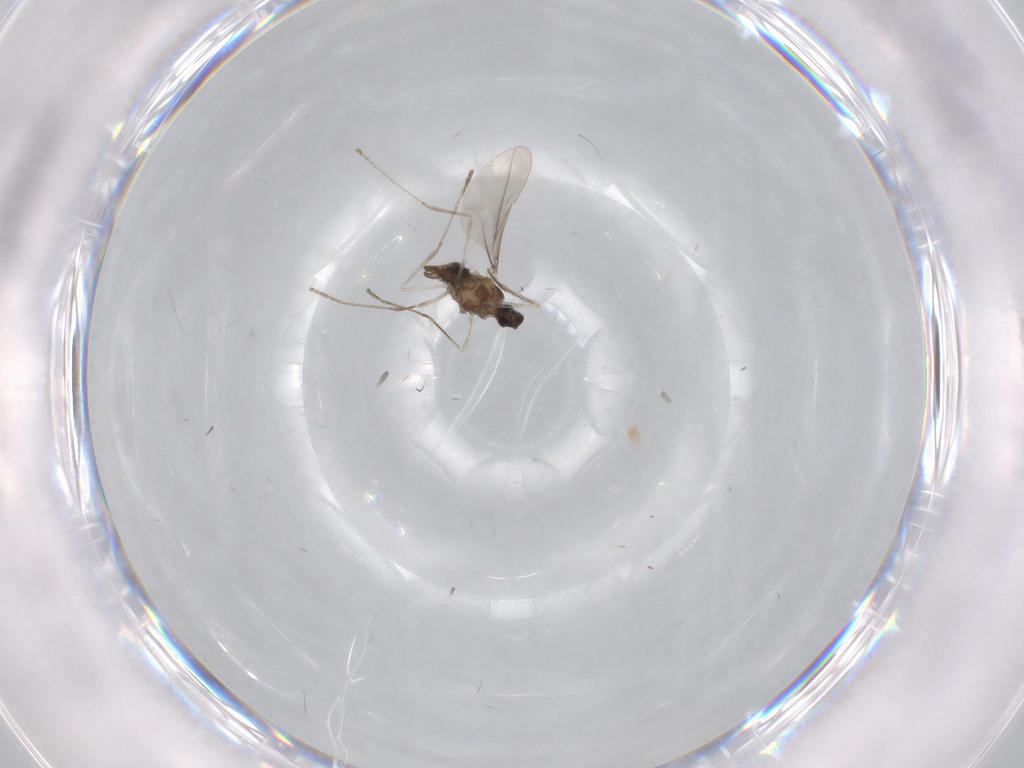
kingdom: Animalia
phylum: Arthropoda
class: Insecta
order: Diptera
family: Cecidomyiidae
